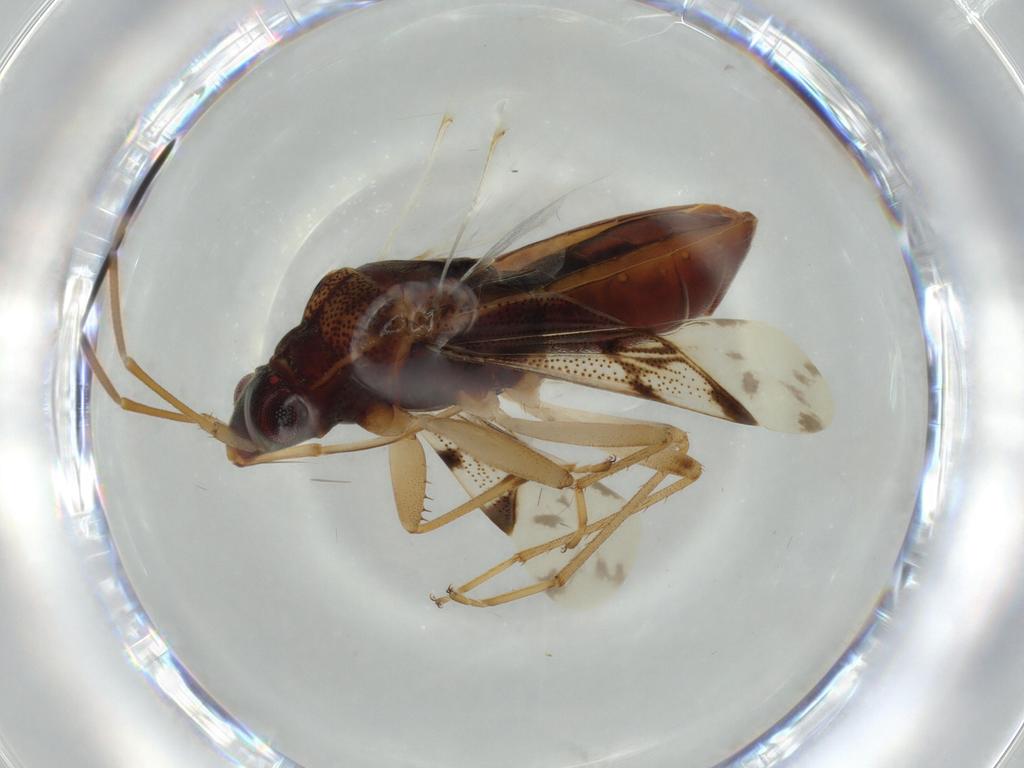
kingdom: Animalia
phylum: Arthropoda
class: Insecta
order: Hemiptera
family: Rhyparochromidae
